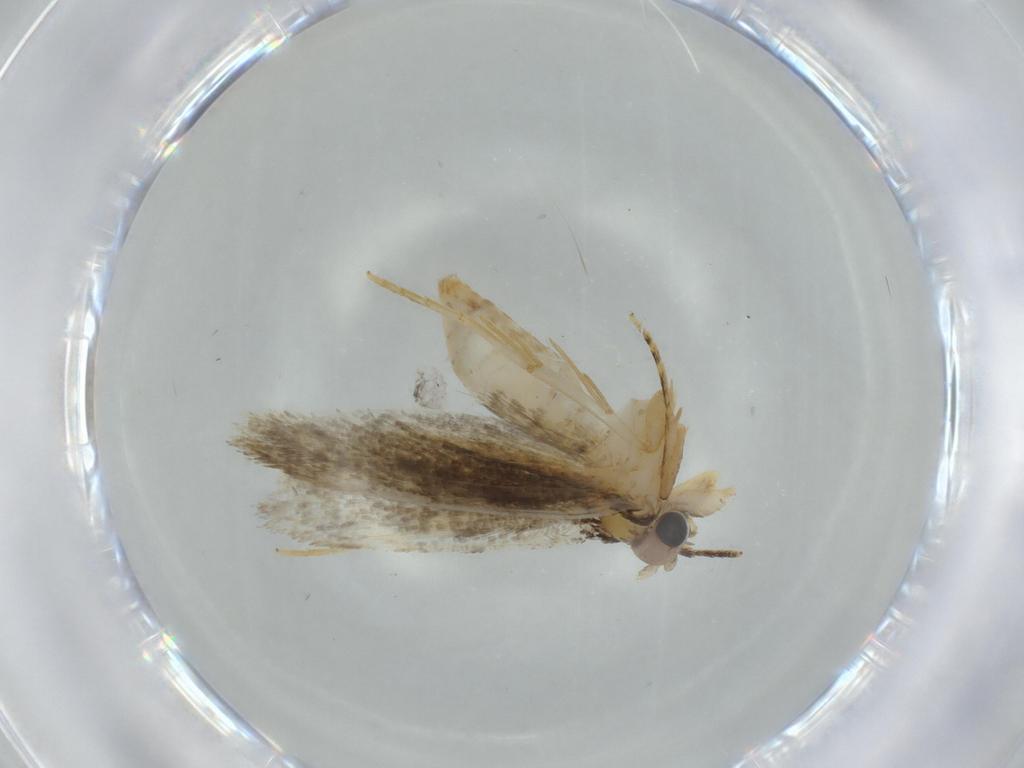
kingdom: Animalia
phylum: Arthropoda
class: Insecta
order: Lepidoptera
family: Tineidae
